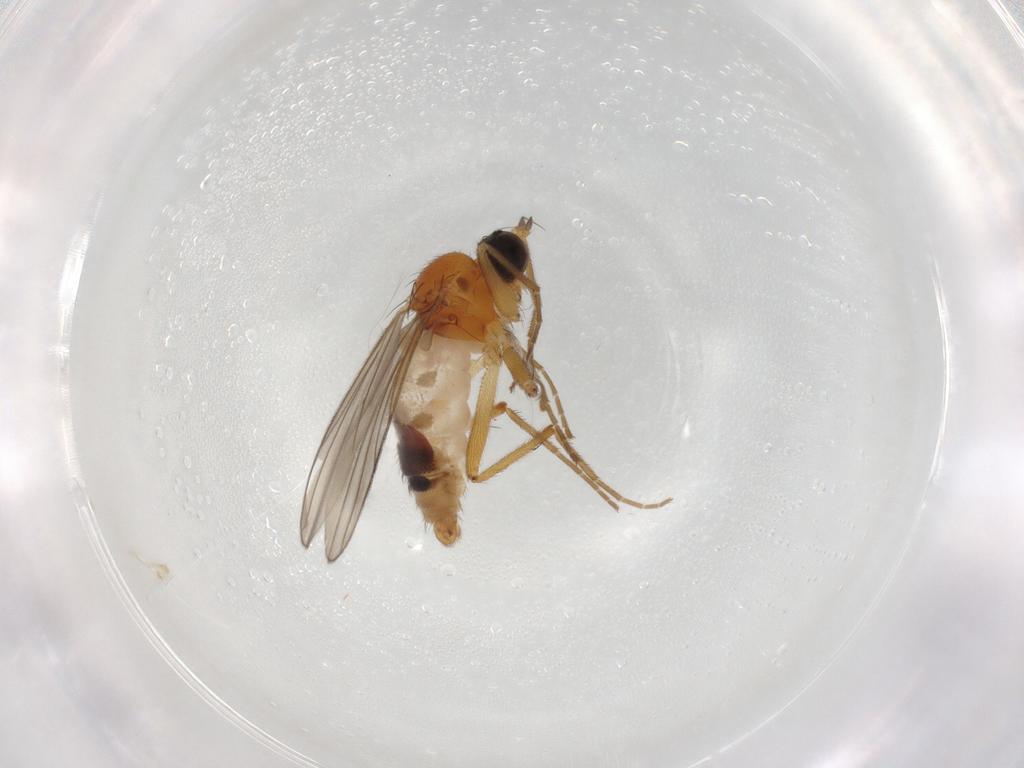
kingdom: Animalia
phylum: Arthropoda
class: Insecta
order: Diptera
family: Hybotidae
